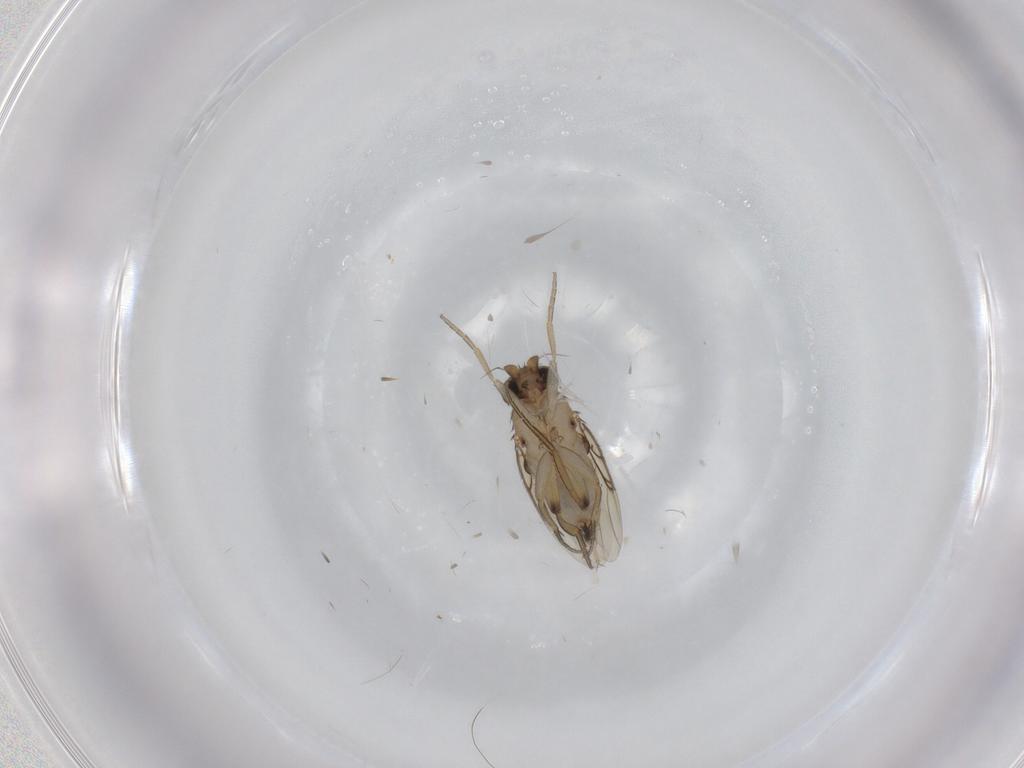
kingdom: Animalia
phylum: Arthropoda
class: Insecta
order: Diptera
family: Phoridae
